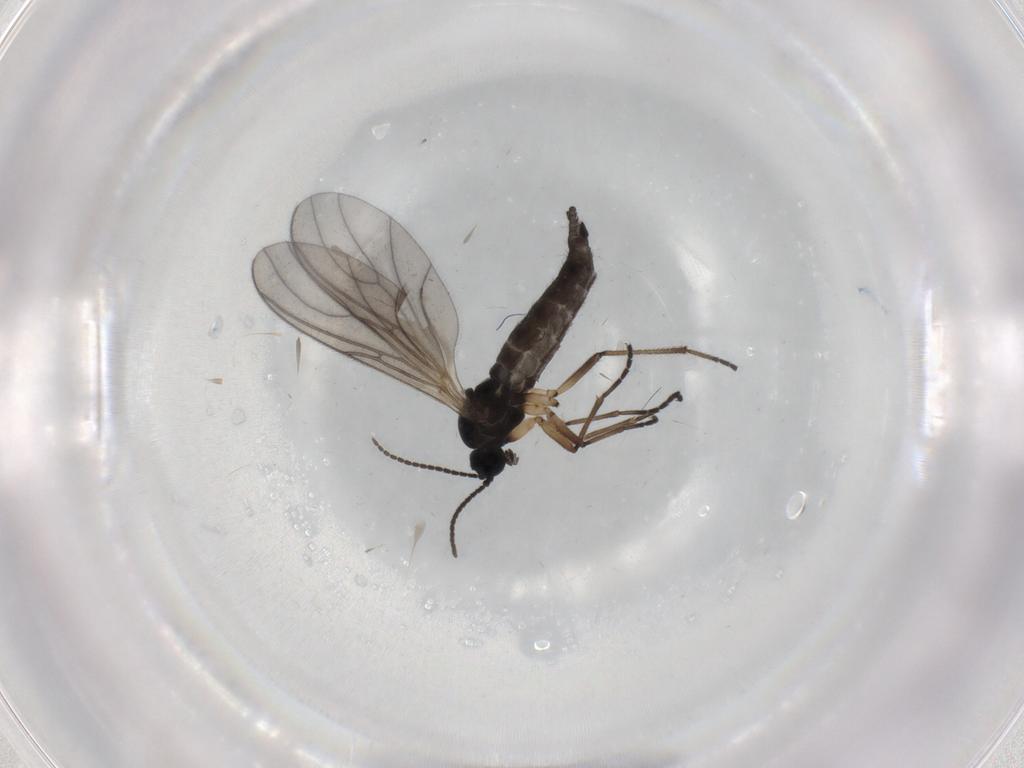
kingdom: Animalia
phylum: Arthropoda
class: Insecta
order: Diptera
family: Sciaridae
